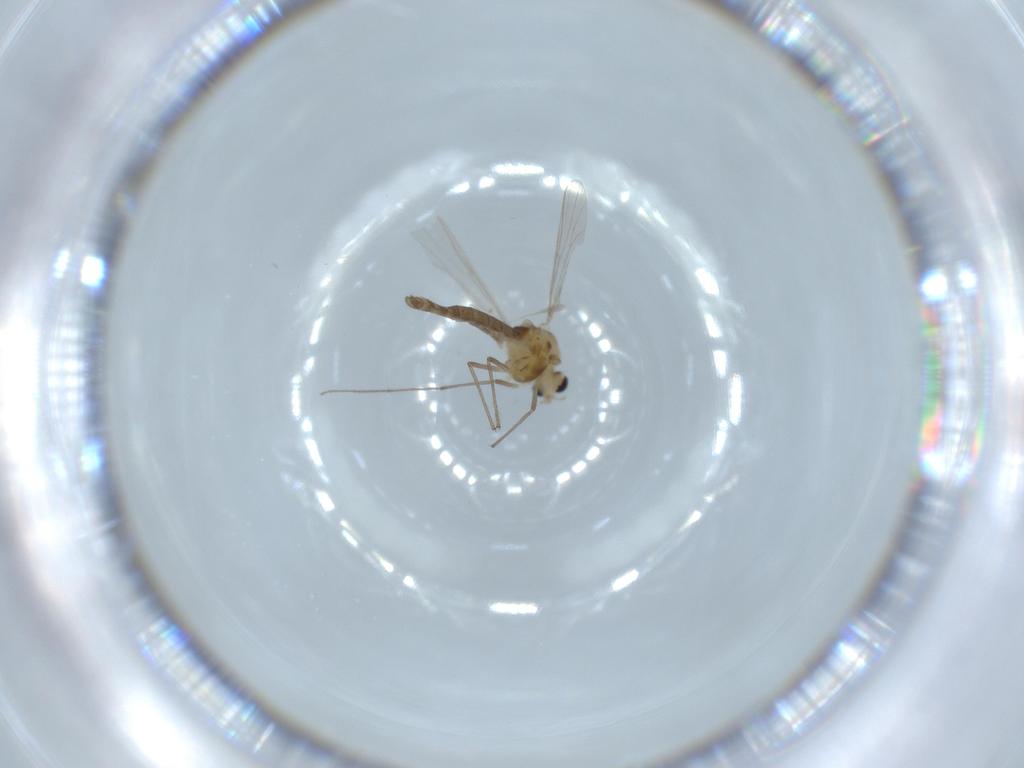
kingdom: Animalia
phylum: Arthropoda
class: Insecta
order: Diptera
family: Chironomidae
